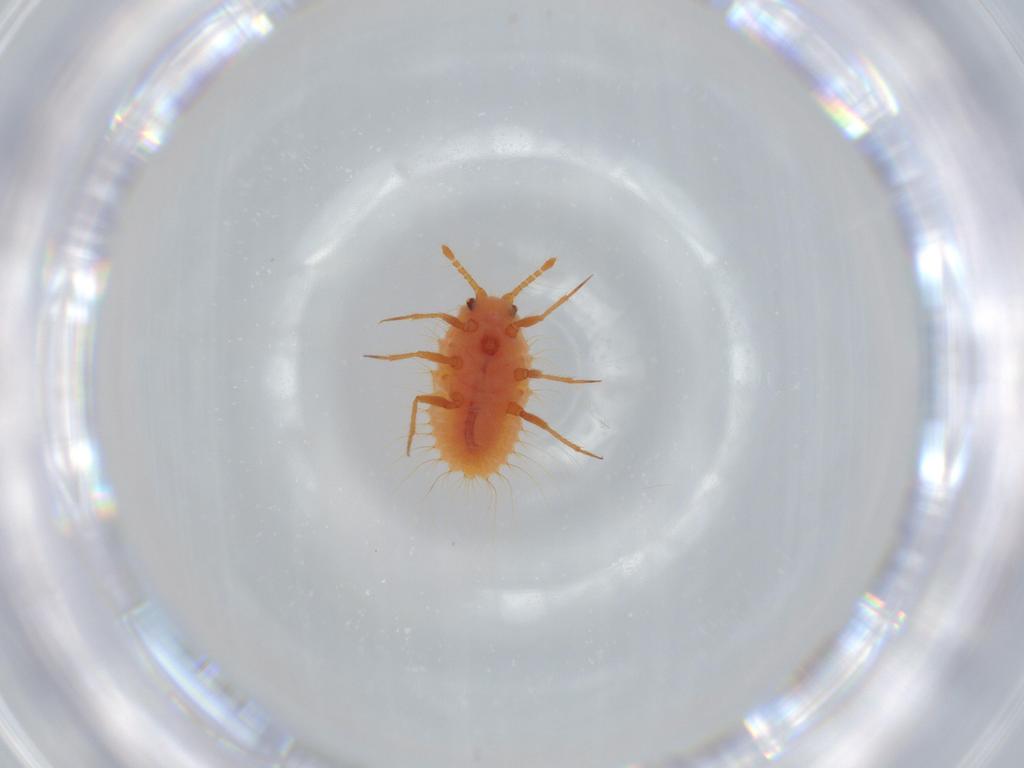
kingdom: Animalia
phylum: Arthropoda
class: Insecta
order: Hemiptera
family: Coccoidea_incertae_sedis
